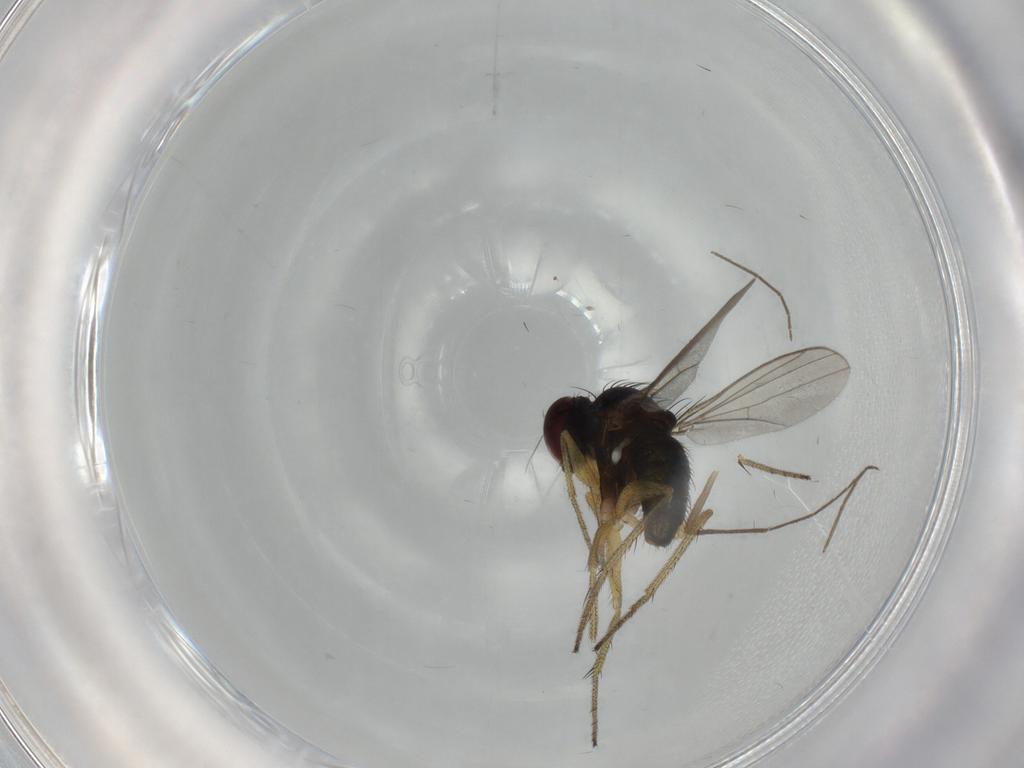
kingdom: Animalia
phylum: Arthropoda
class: Insecta
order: Diptera
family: Dolichopodidae
